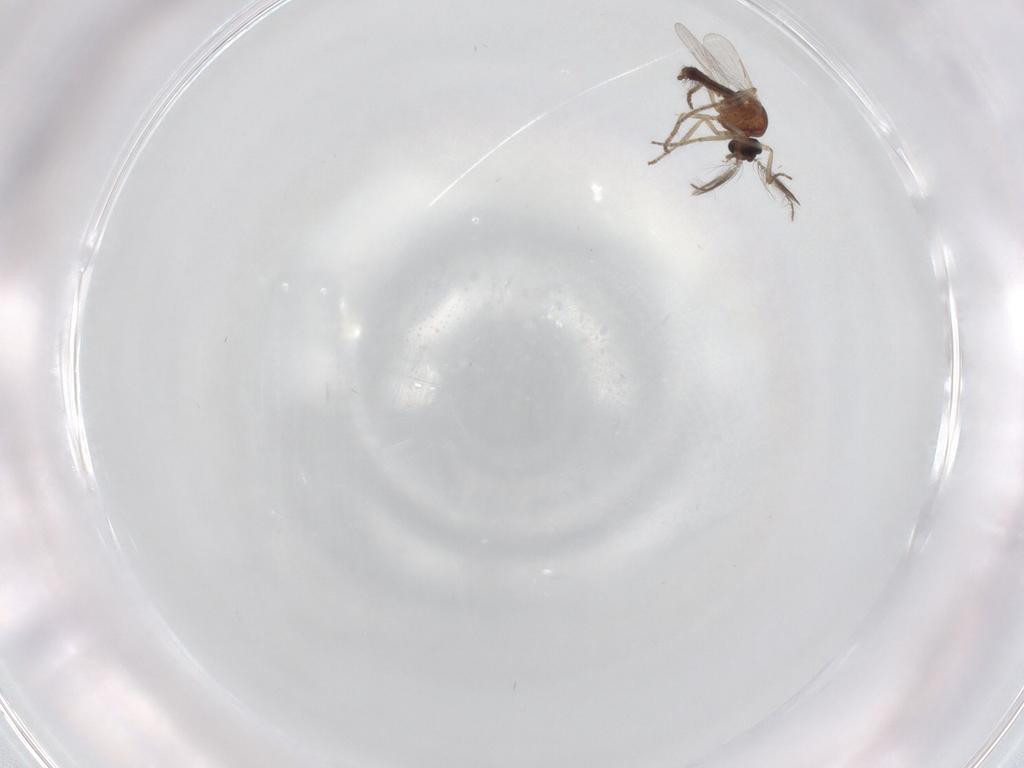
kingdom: Animalia
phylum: Arthropoda
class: Insecta
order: Diptera
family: Ceratopogonidae
